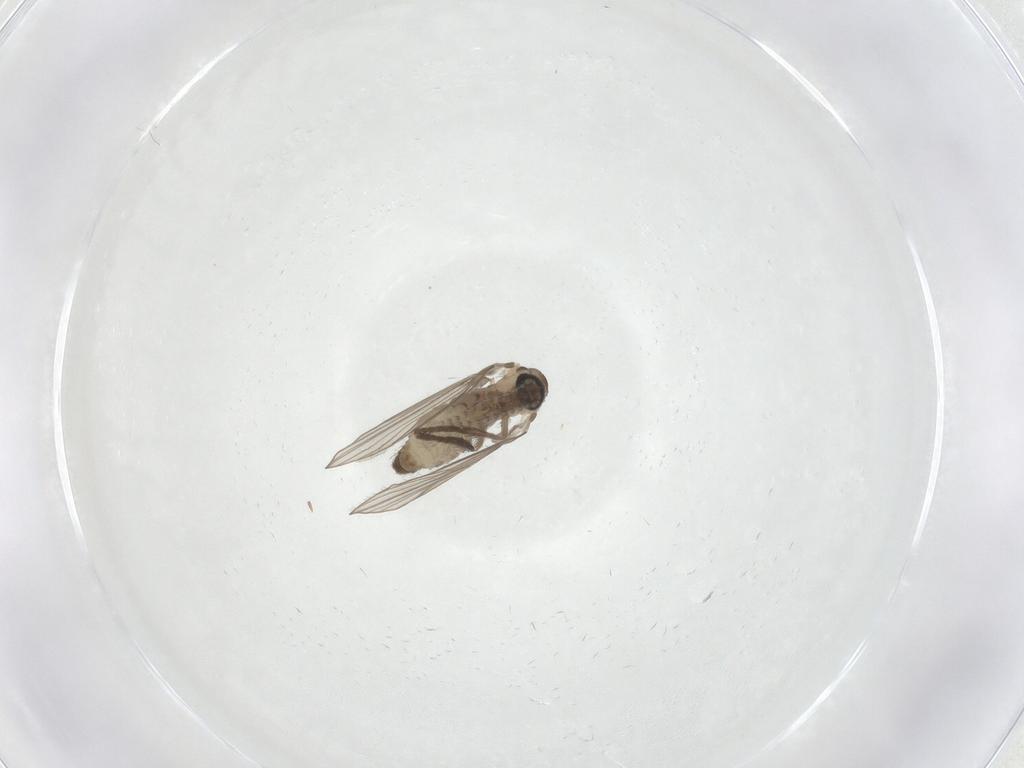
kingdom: Animalia
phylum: Arthropoda
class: Insecta
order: Diptera
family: Psychodidae
